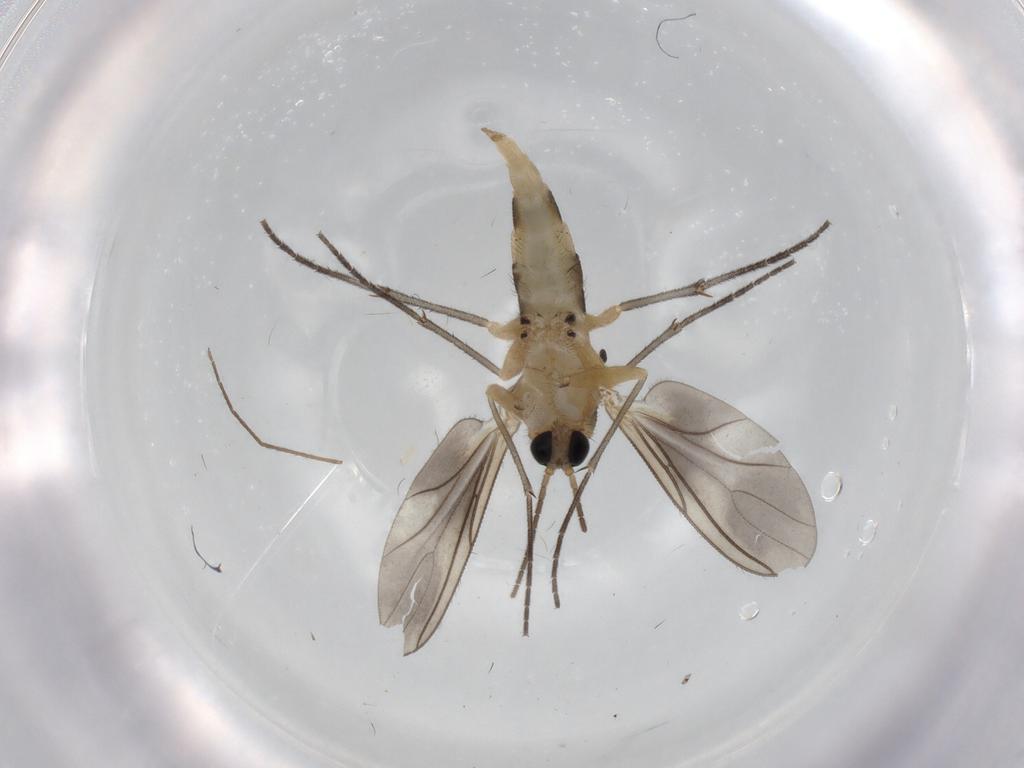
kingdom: Animalia
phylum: Arthropoda
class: Insecta
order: Diptera
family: Sciaridae
